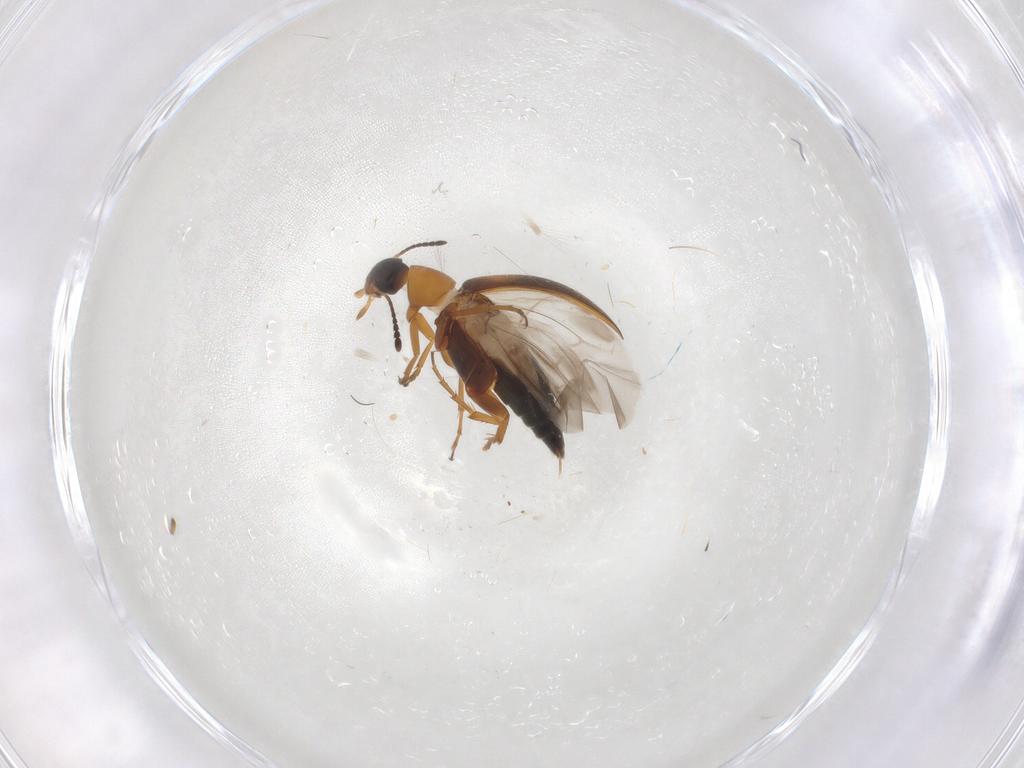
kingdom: Animalia
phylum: Arthropoda
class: Insecta
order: Coleoptera
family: Scraptiidae
